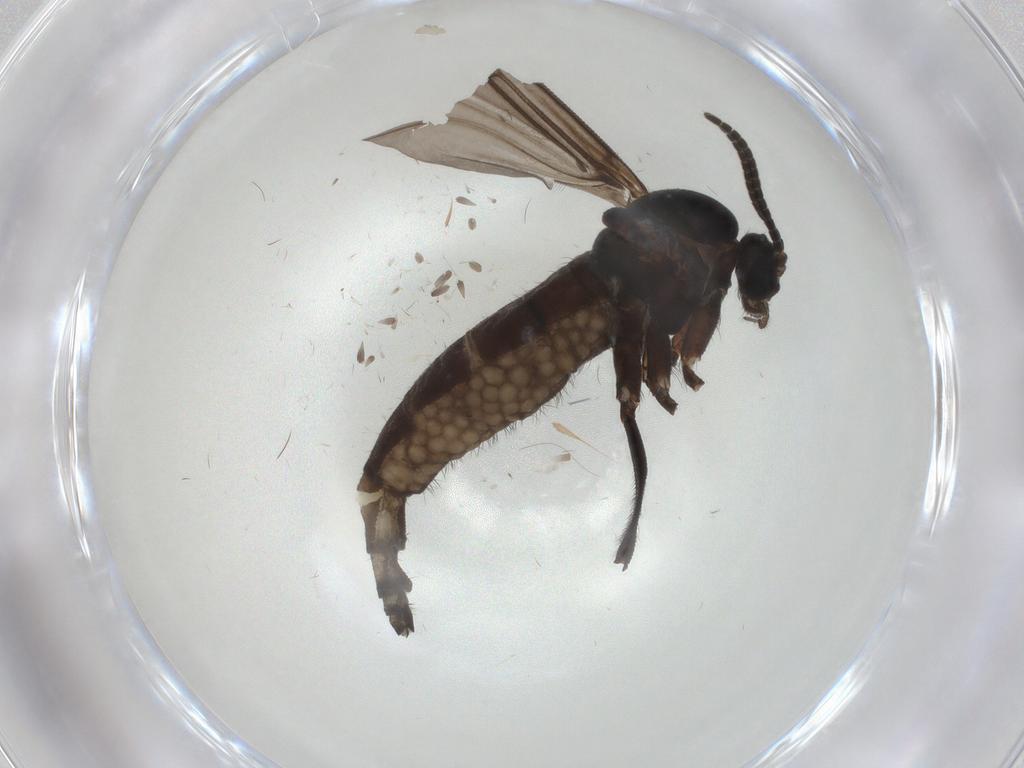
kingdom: Animalia
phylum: Arthropoda
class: Insecta
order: Diptera
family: Sciaridae
